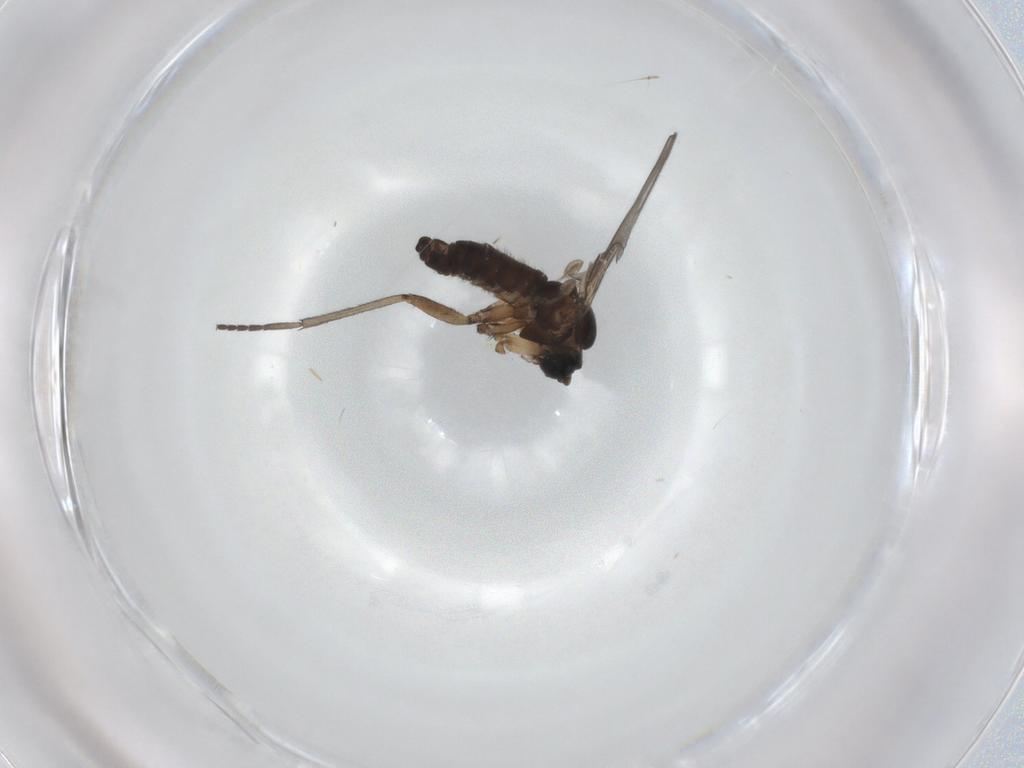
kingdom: Animalia
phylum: Arthropoda
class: Insecta
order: Diptera
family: Sciaridae
